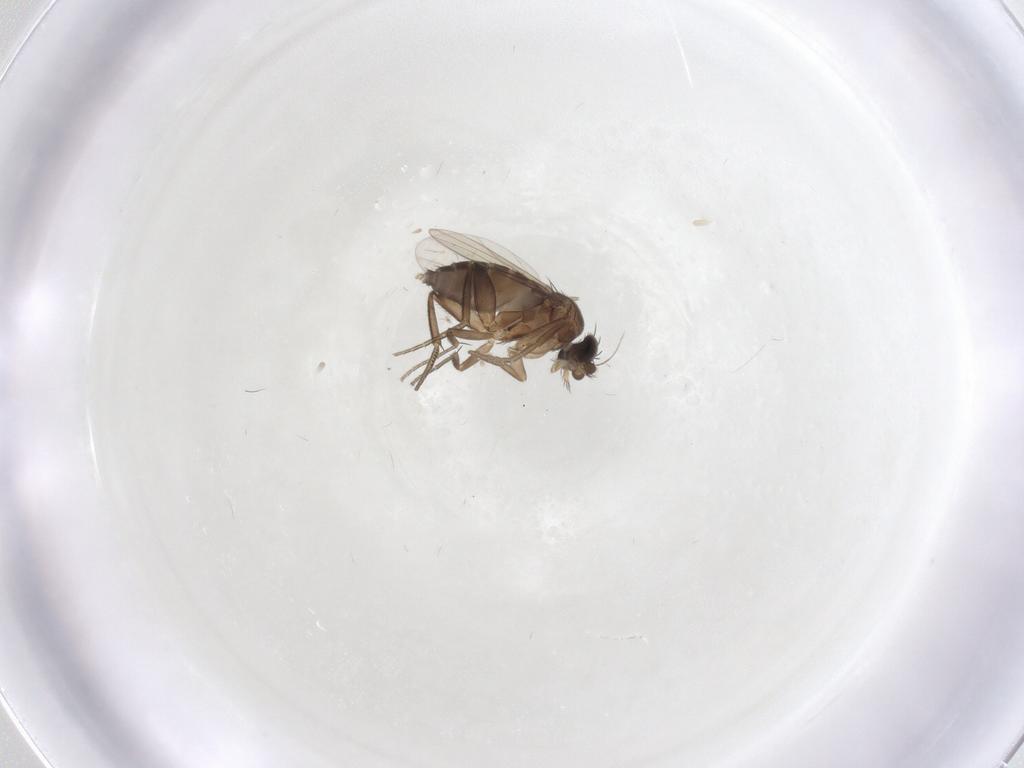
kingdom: Animalia
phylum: Arthropoda
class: Insecta
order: Diptera
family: Phoridae
